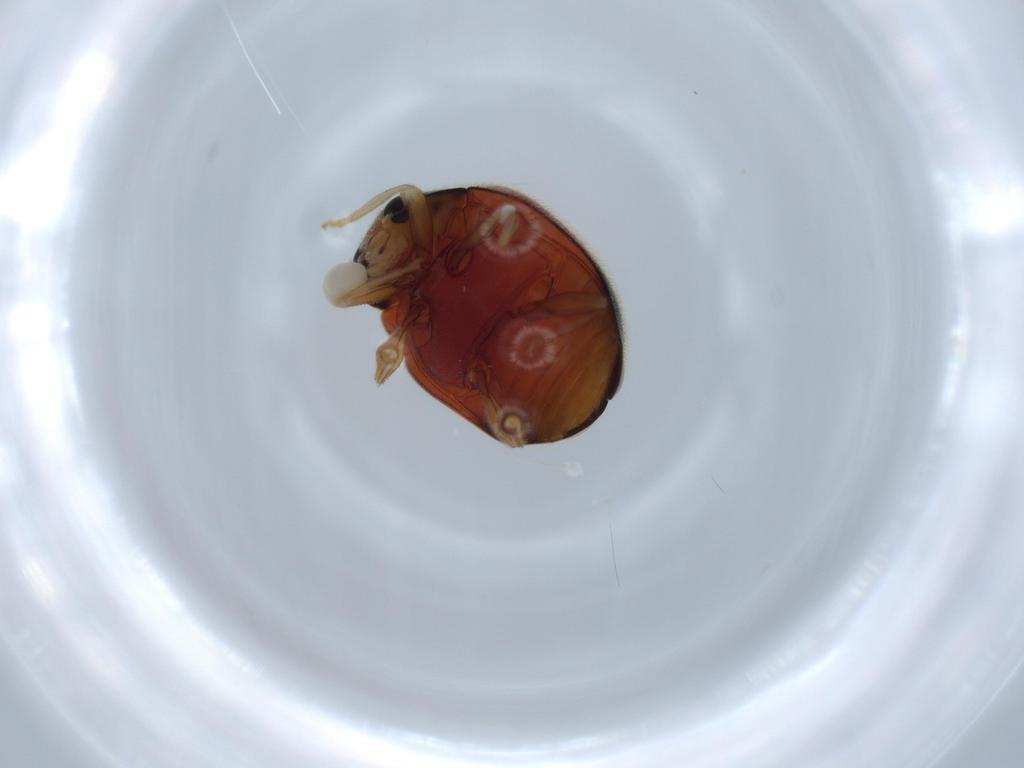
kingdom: Animalia
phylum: Arthropoda
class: Insecta
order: Coleoptera
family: Coccinellidae
